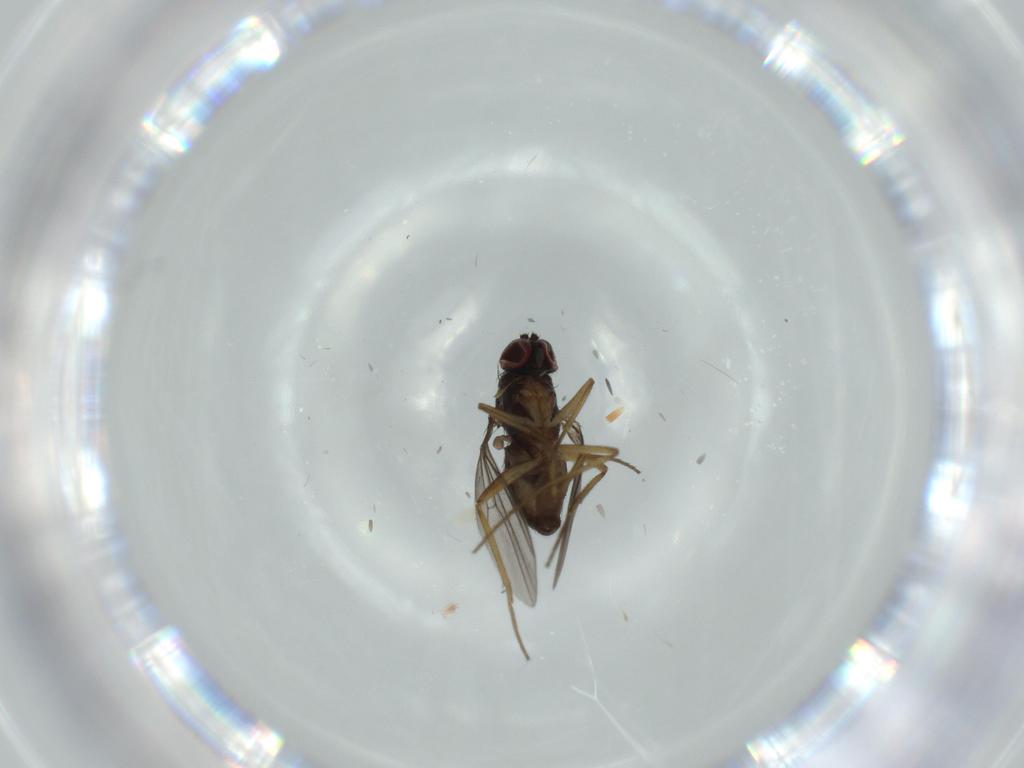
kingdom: Animalia
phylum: Arthropoda
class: Insecta
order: Diptera
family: Dolichopodidae
